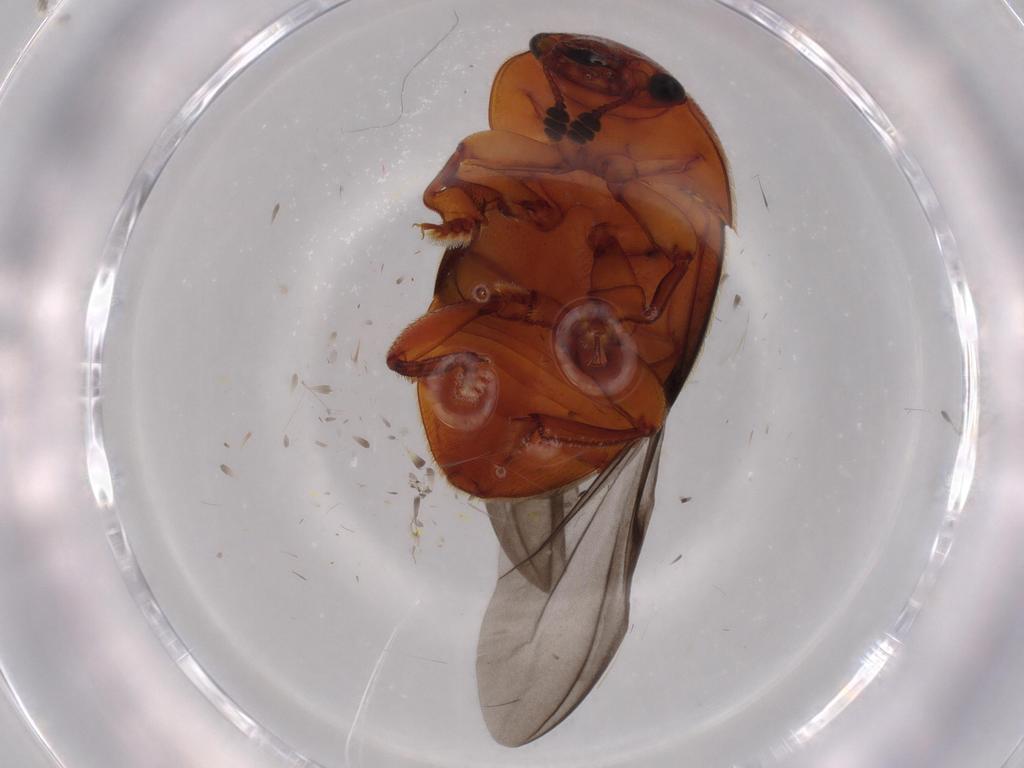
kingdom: Animalia
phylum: Arthropoda
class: Insecta
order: Coleoptera
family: Nitidulidae
